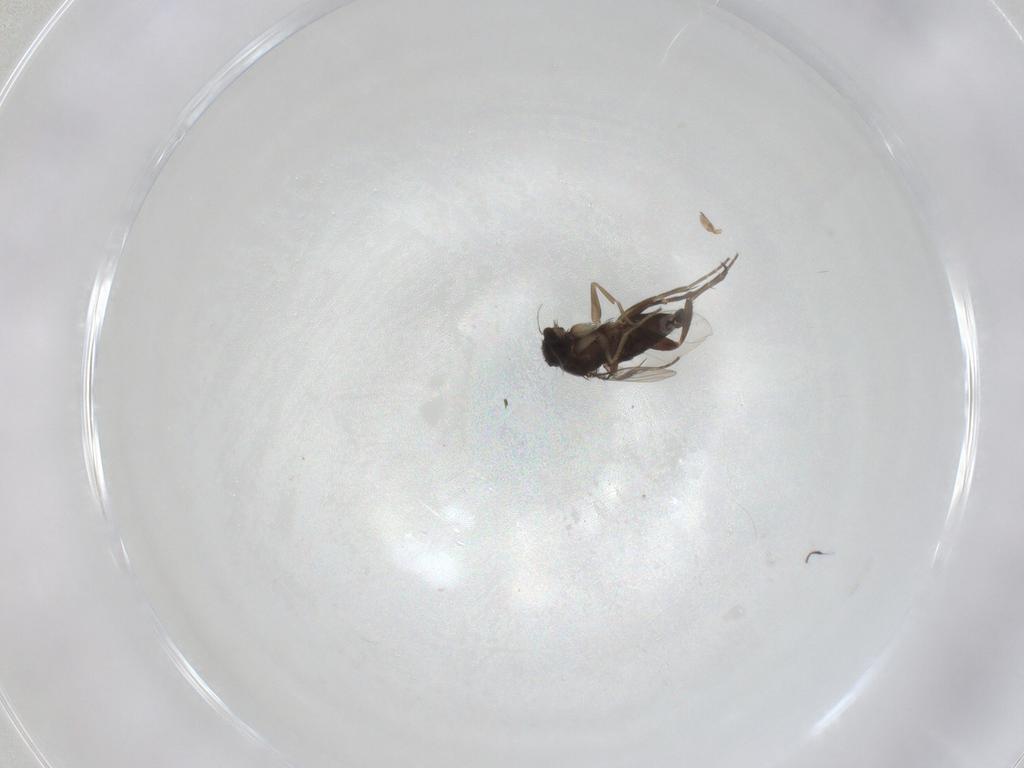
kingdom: Animalia
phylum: Arthropoda
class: Insecta
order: Diptera
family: Phoridae
